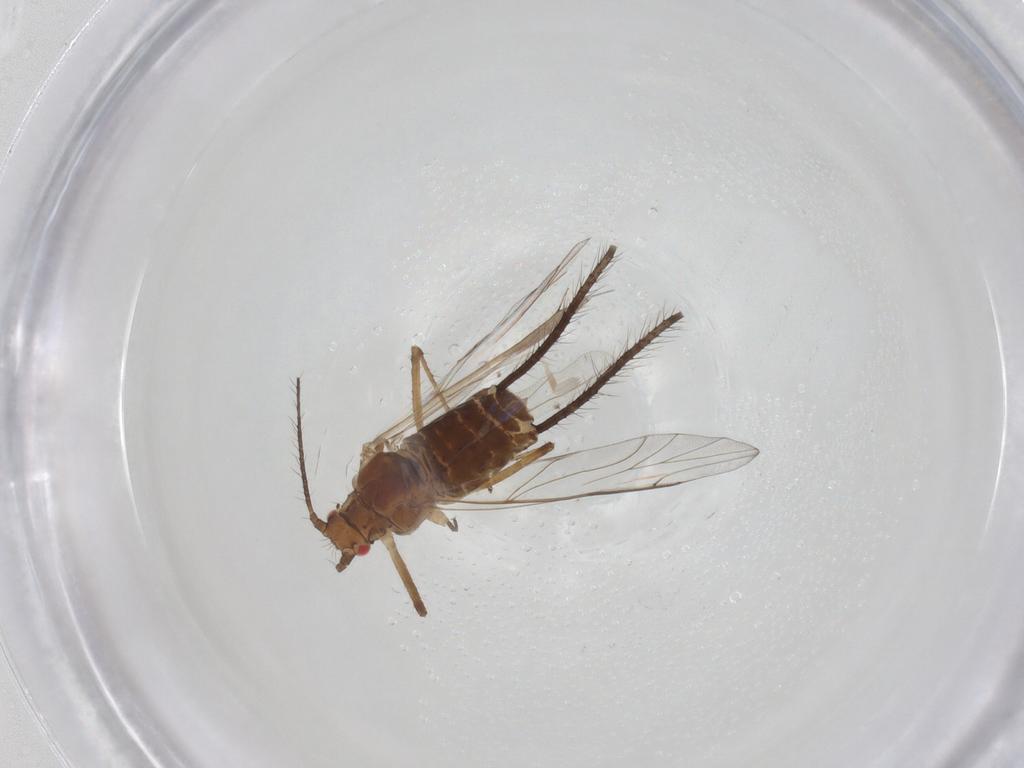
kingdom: Animalia
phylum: Arthropoda
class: Insecta
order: Hemiptera
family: Aphididae
